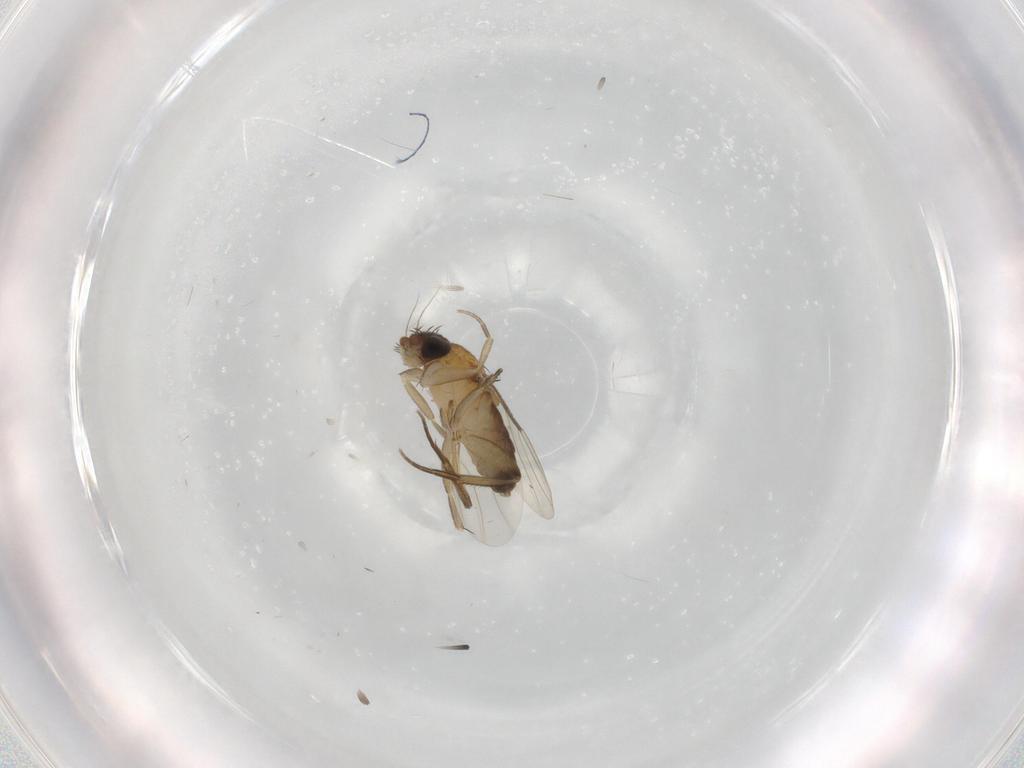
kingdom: Animalia
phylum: Arthropoda
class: Insecta
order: Diptera
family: Phoridae
